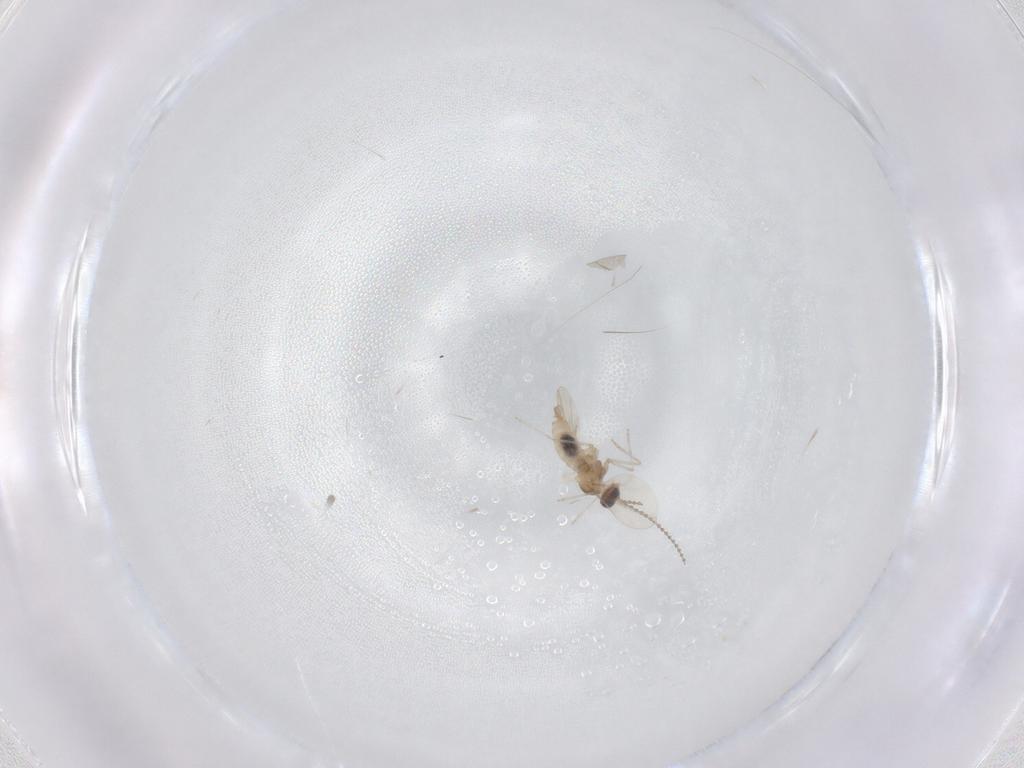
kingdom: Animalia
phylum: Arthropoda
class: Insecta
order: Diptera
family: Cecidomyiidae
